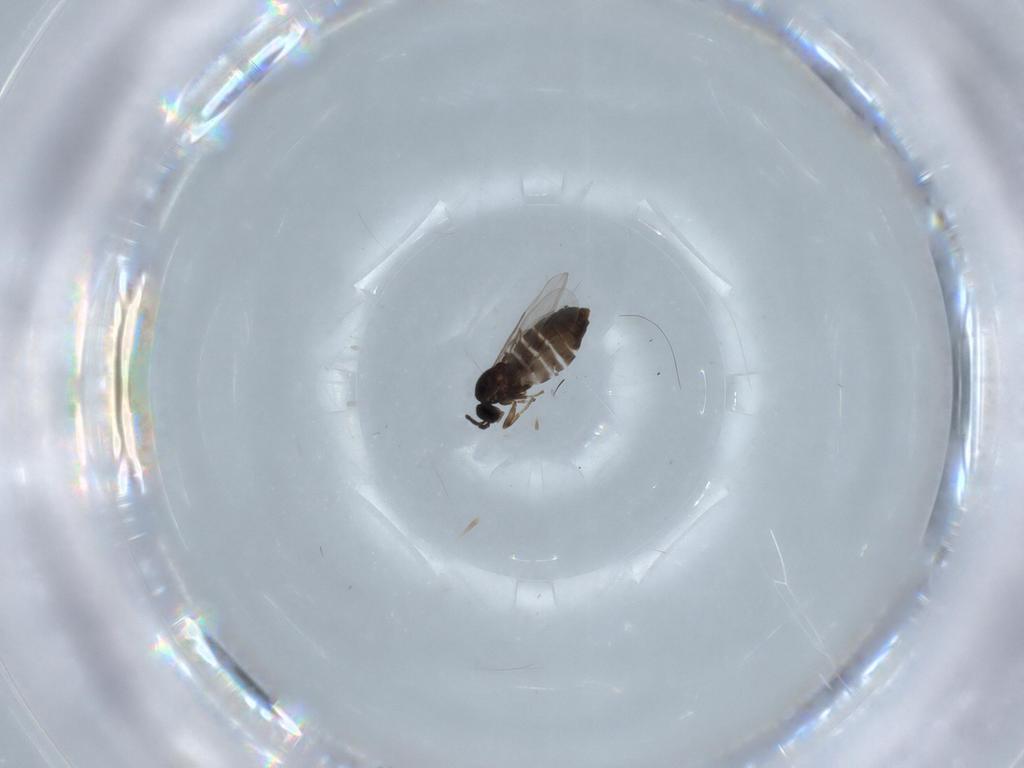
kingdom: Animalia
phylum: Arthropoda
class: Insecta
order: Diptera
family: Scatopsidae
